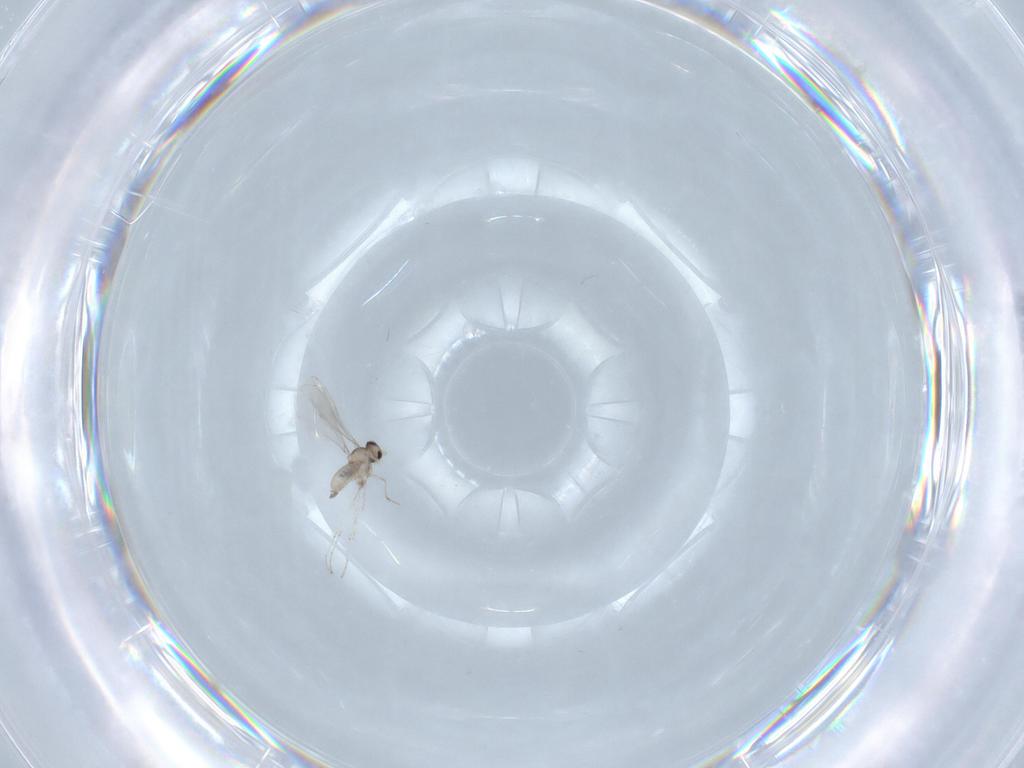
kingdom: Animalia
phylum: Arthropoda
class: Insecta
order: Diptera
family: Cecidomyiidae
